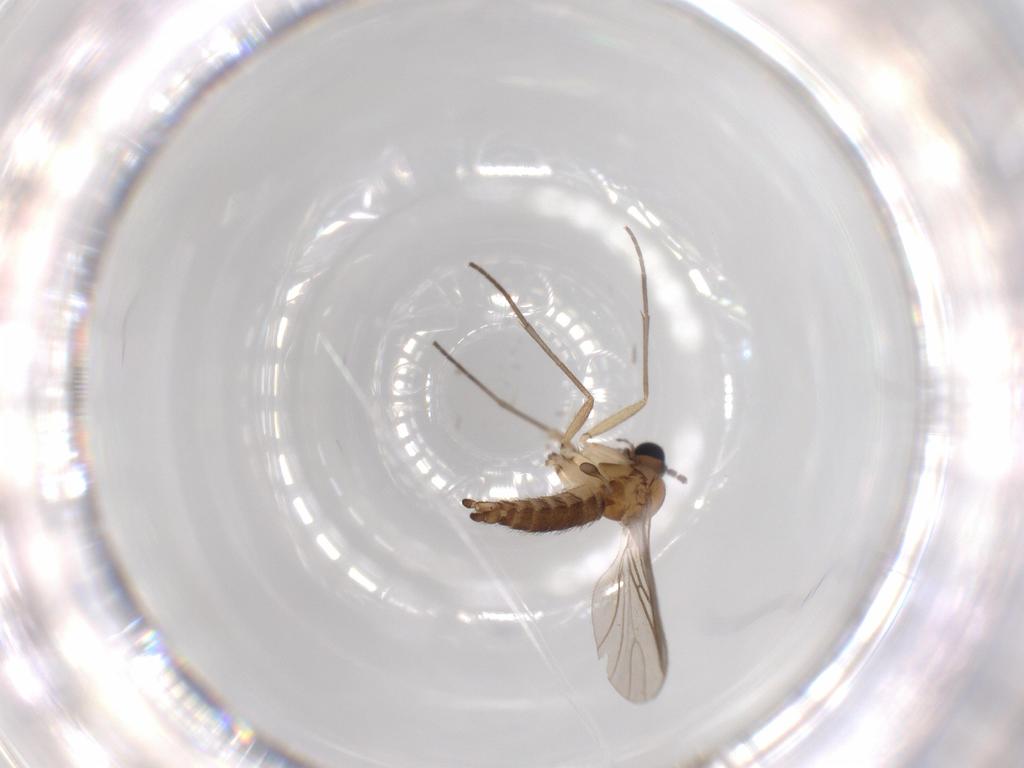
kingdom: Animalia
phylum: Arthropoda
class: Insecta
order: Diptera
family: Sciaridae
